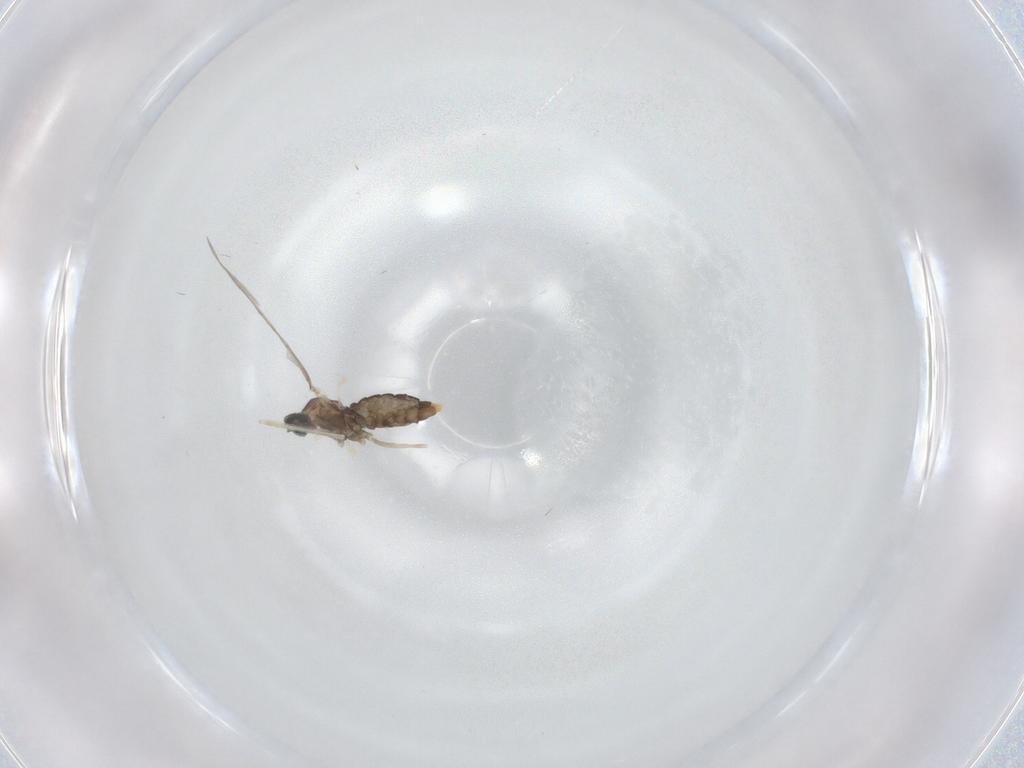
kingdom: Animalia
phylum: Arthropoda
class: Insecta
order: Diptera
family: Cecidomyiidae
